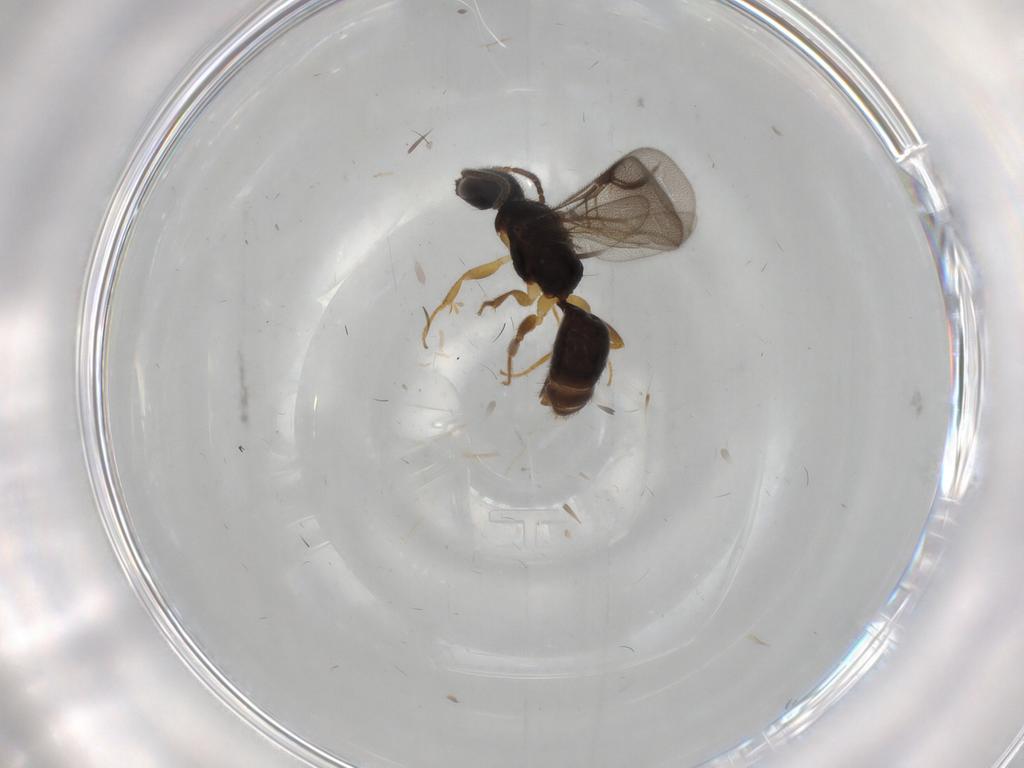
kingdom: Animalia
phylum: Arthropoda
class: Insecta
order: Hymenoptera
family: Bethylidae
